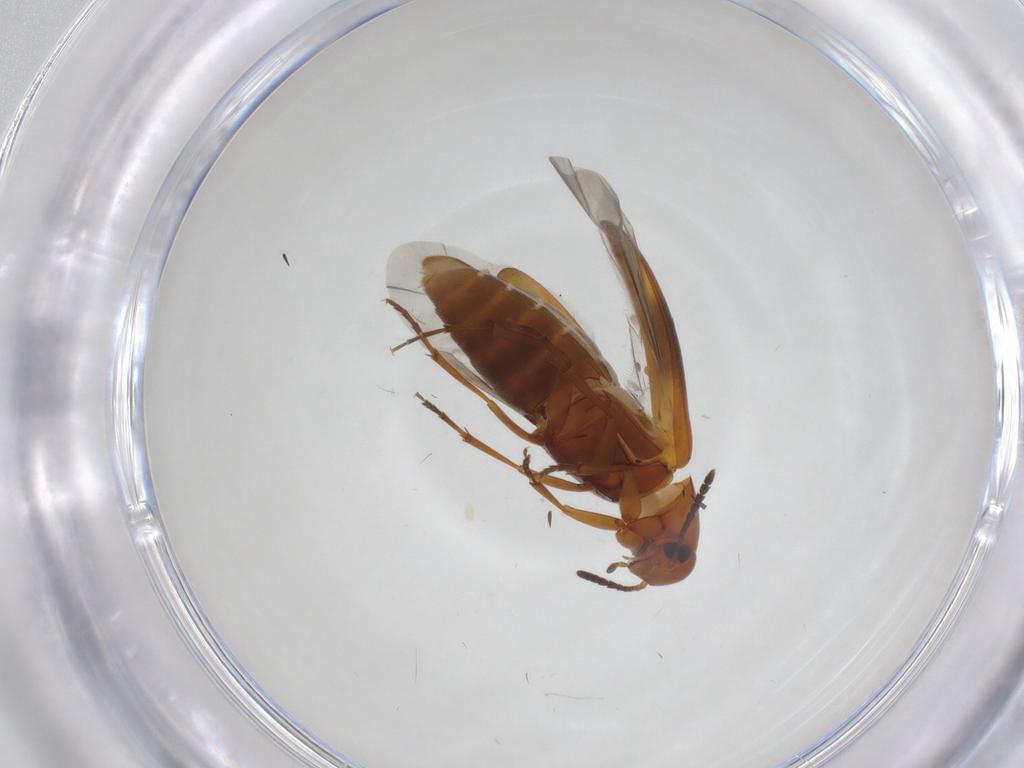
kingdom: Animalia
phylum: Arthropoda
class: Insecta
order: Coleoptera
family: Scraptiidae
